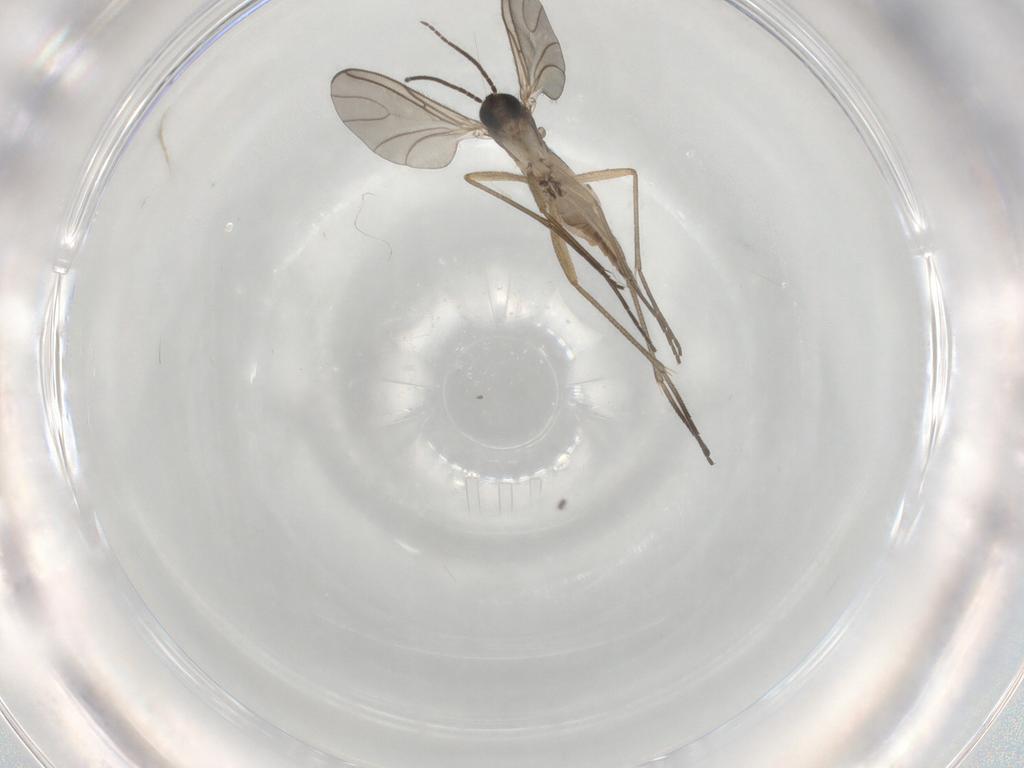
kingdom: Animalia
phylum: Arthropoda
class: Insecta
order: Diptera
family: Sciaridae
